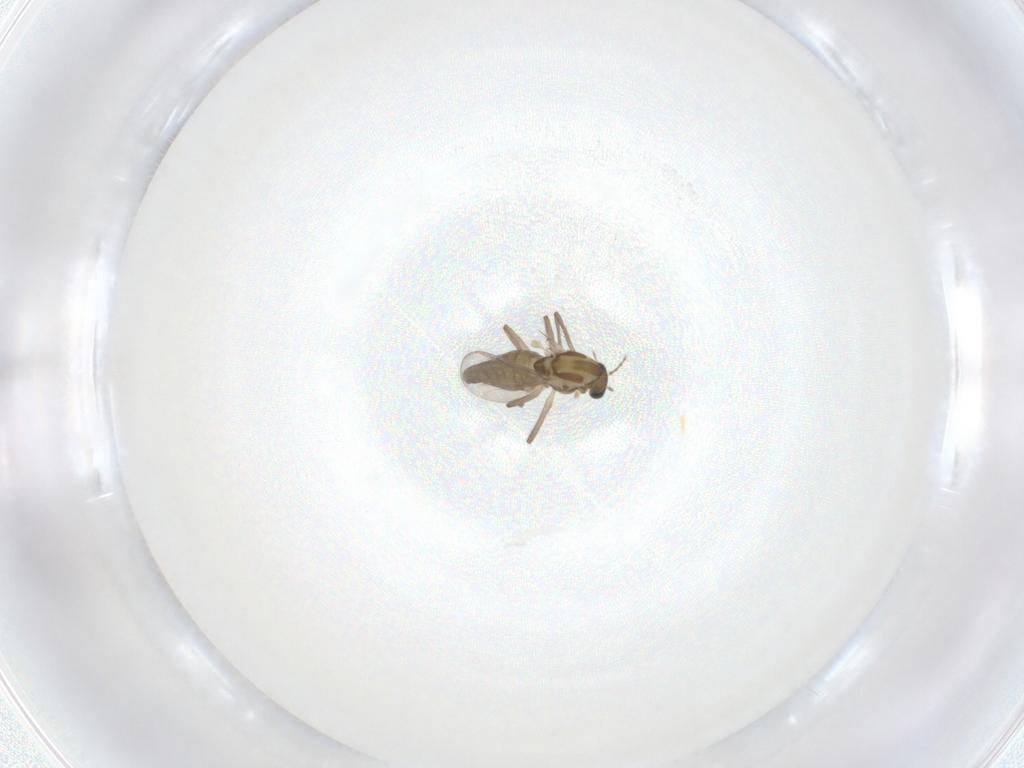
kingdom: Animalia
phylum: Arthropoda
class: Insecta
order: Diptera
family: Chironomidae
